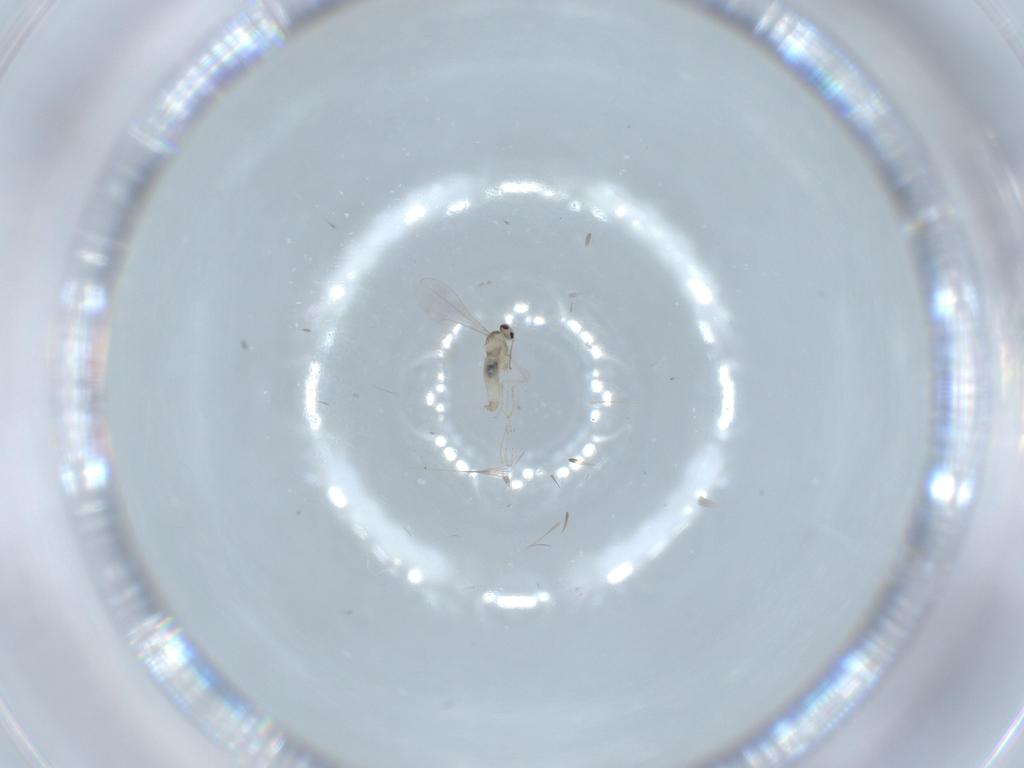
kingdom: Animalia
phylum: Arthropoda
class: Insecta
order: Diptera
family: Cecidomyiidae
